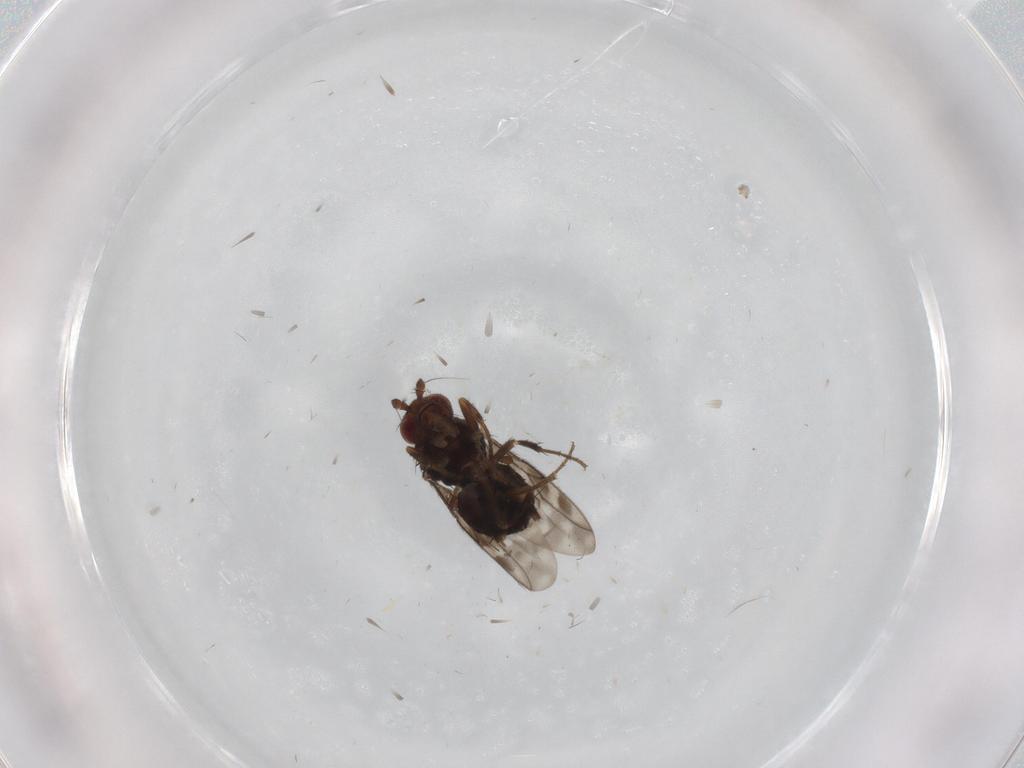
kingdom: Animalia
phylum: Arthropoda
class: Insecta
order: Diptera
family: Sphaeroceridae
